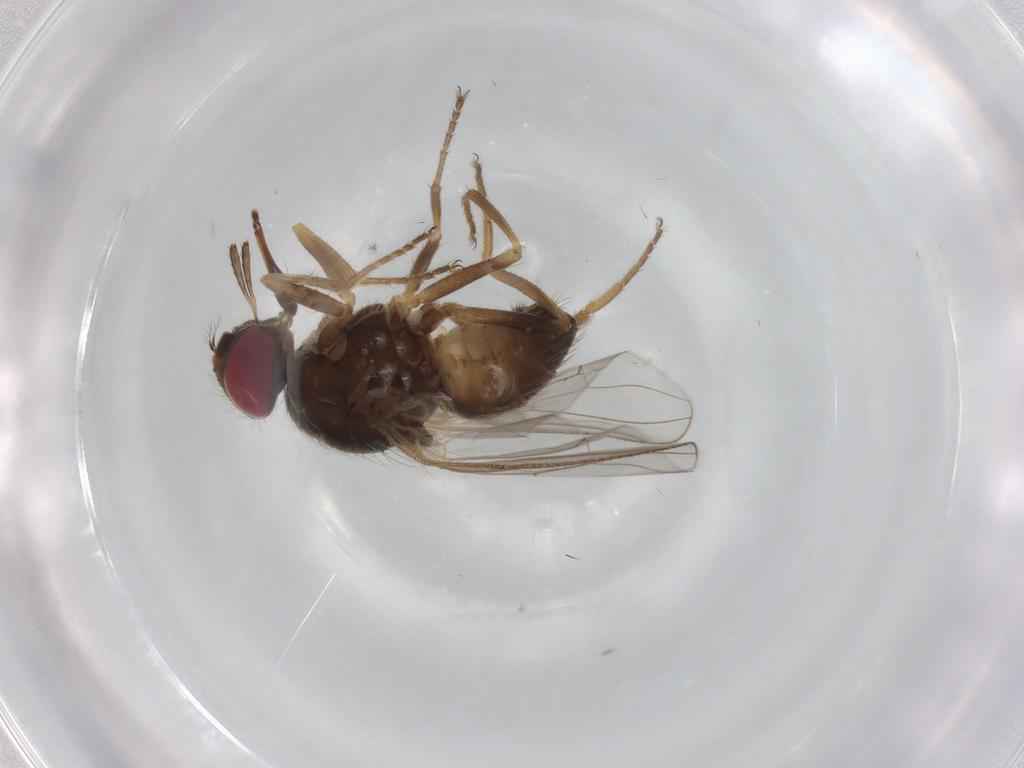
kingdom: Animalia
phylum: Arthropoda
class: Insecta
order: Diptera
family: Muscidae
